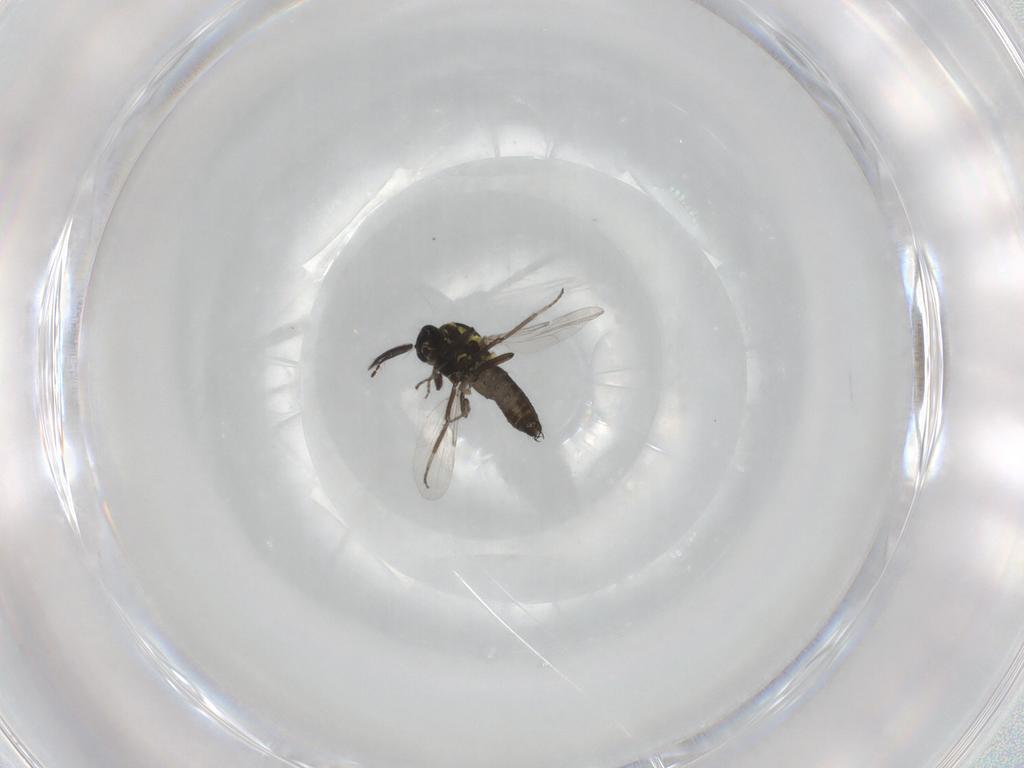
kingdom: Animalia
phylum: Arthropoda
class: Insecta
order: Diptera
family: Ceratopogonidae
